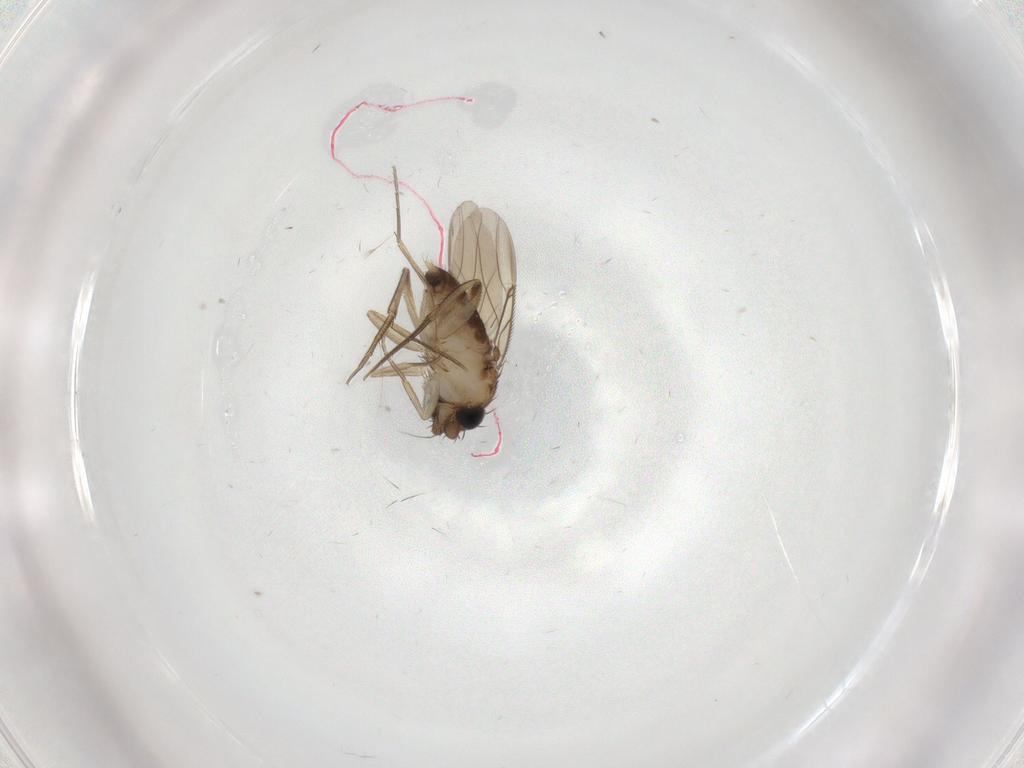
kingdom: Animalia
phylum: Arthropoda
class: Insecta
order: Diptera
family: Phoridae
